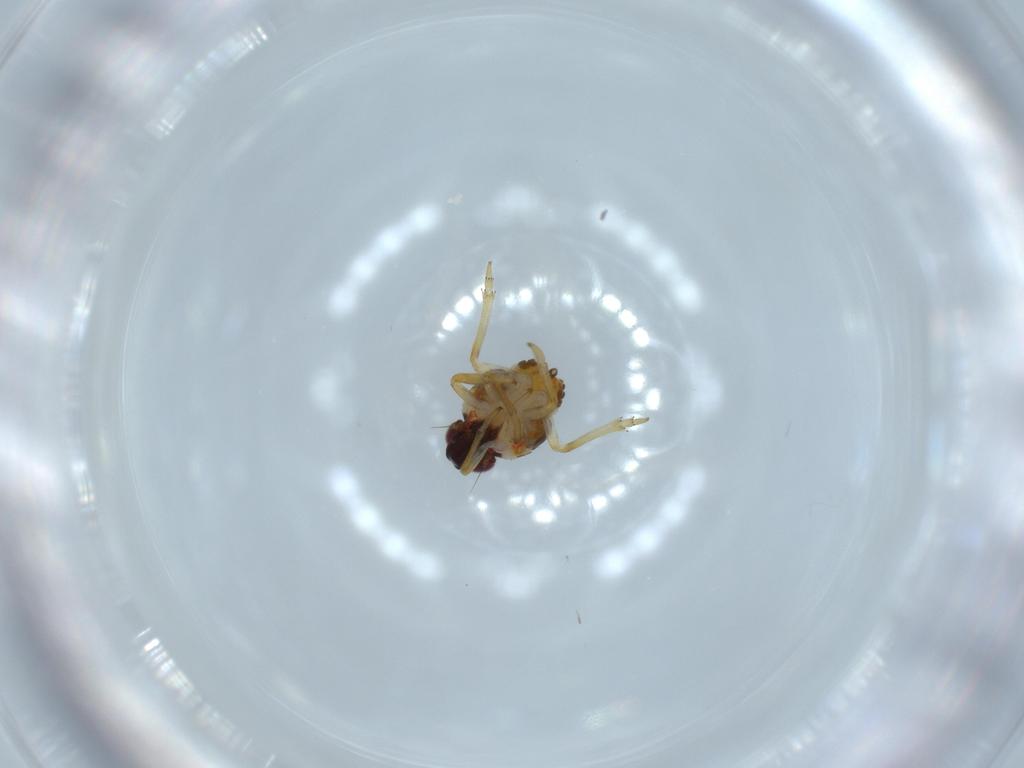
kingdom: Animalia
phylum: Arthropoda
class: Insecta
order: Hemiptera
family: Issidae
